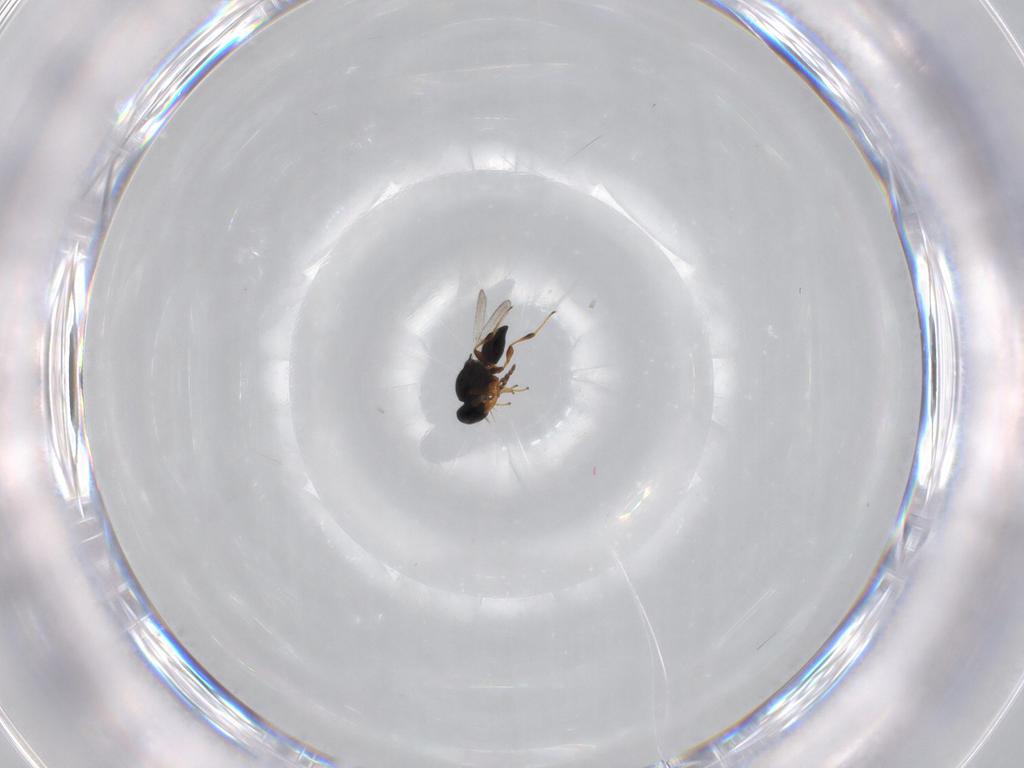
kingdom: Animalia
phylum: Arthropoda
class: Insecta
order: Hymenoptera
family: Platygastridae
